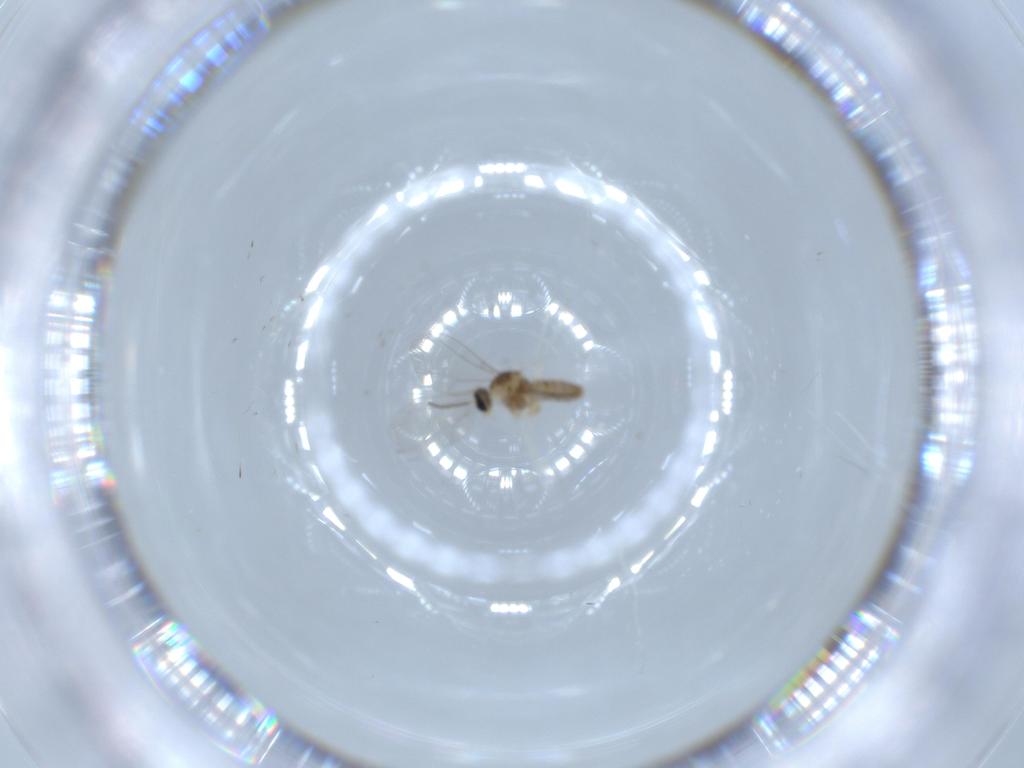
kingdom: Animalia
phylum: Arthropoda
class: Insecta
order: Diptera
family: Cecidomyiidae
